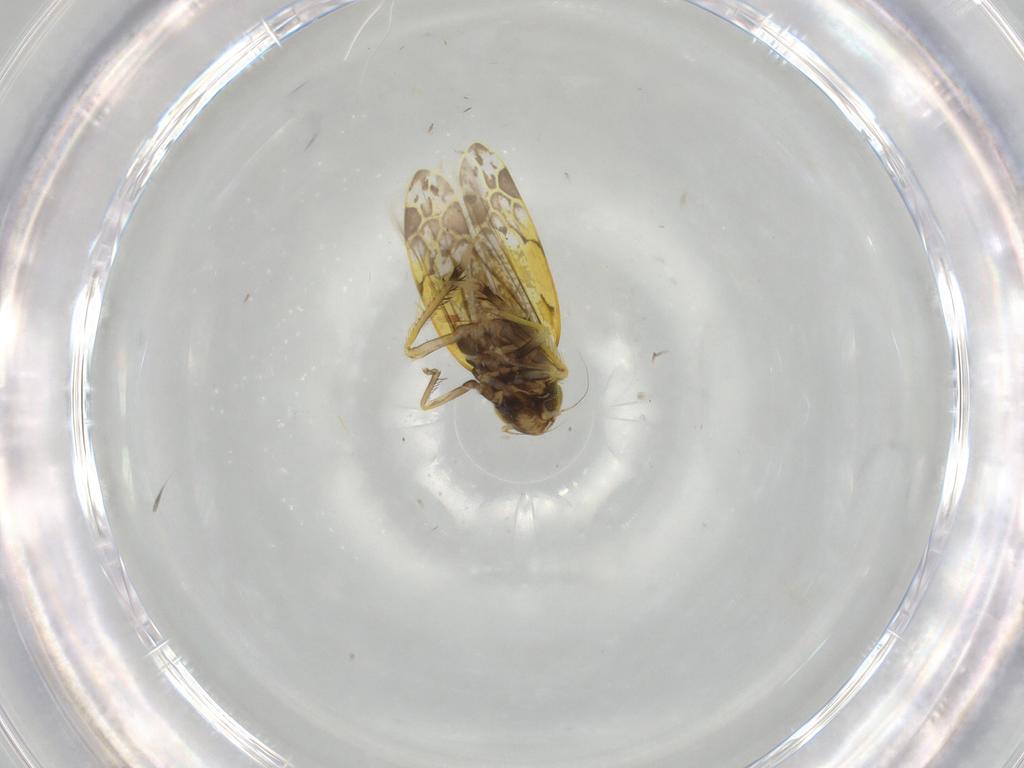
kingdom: Animalia
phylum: Arthropoda
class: Insecta
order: Hemiptera
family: Cicadellidae
